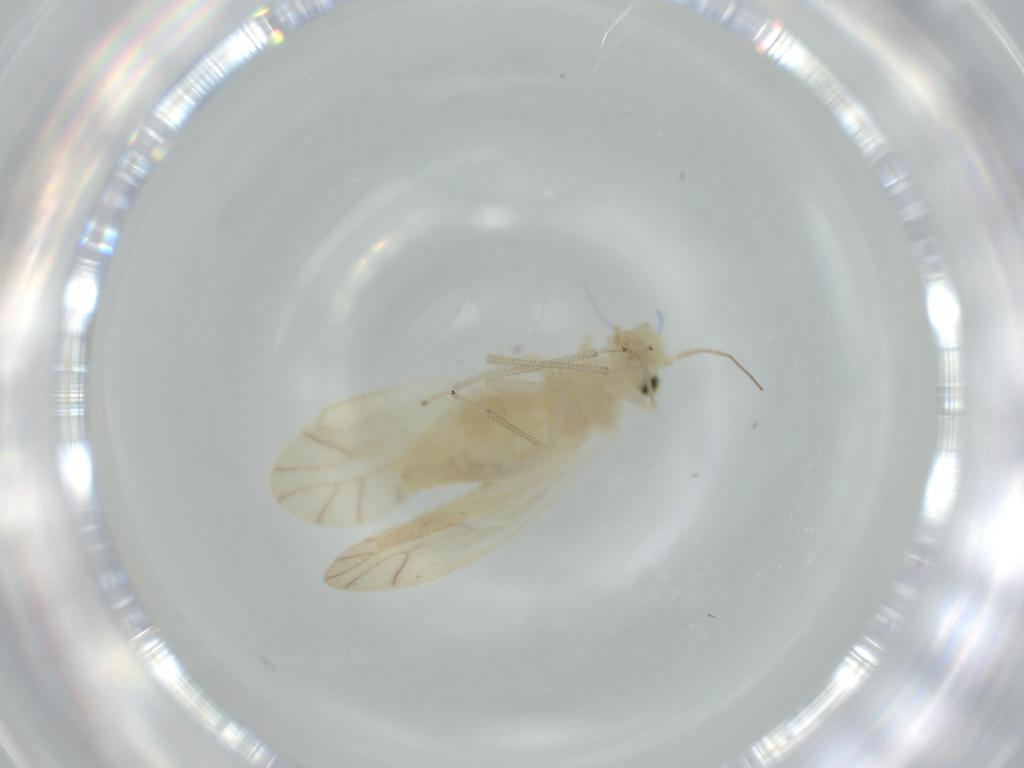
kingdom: Animalia
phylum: Arthropoda
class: Insecta
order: Psocodea
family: Caeciliusidae
